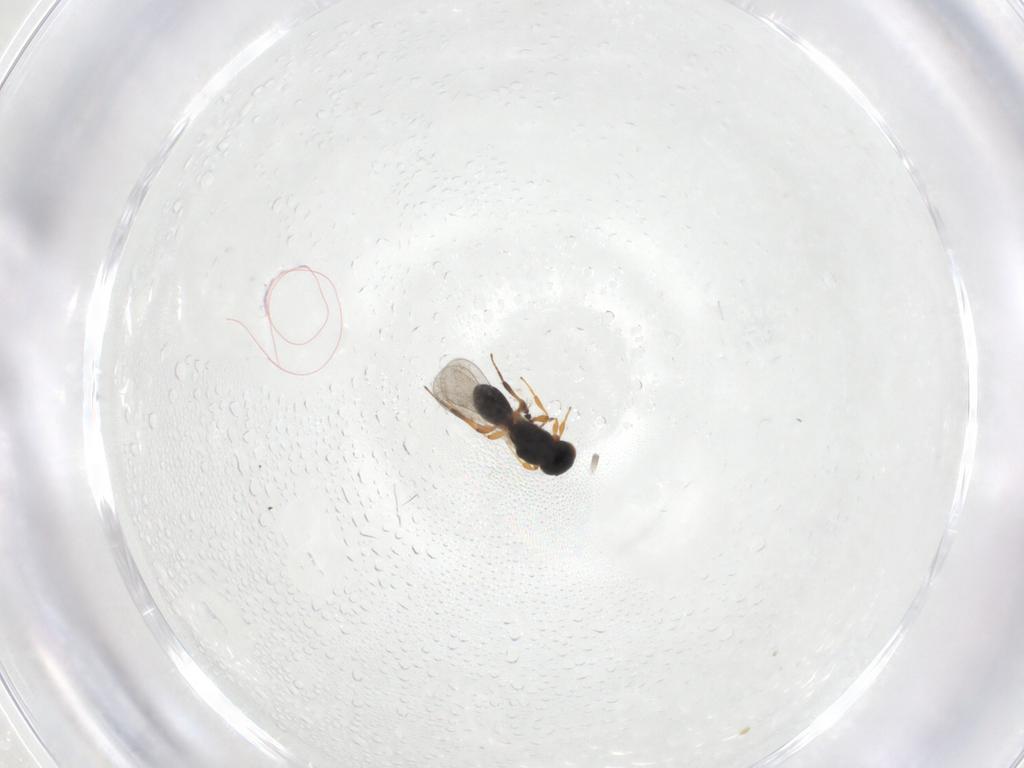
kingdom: Animalia
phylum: Arthropoda
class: Insecta
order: Hymenoptera
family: Platygastridae
